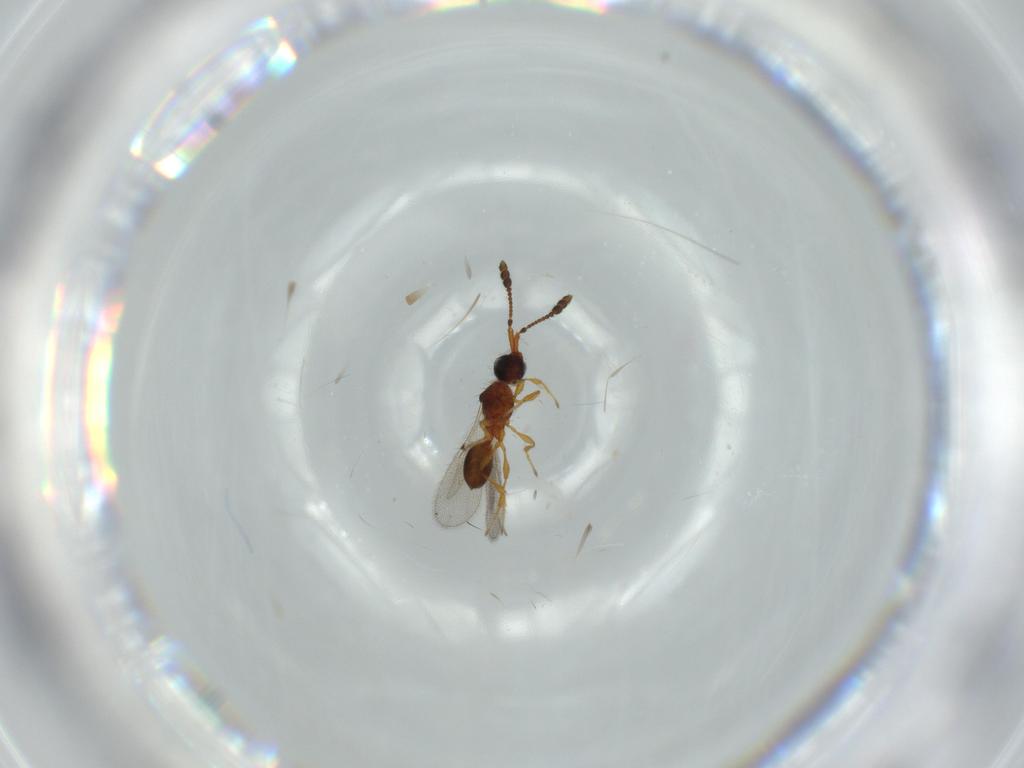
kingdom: Animalia
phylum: Arthropoda
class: Insecta
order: Hymenoptera
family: Diapriidae
